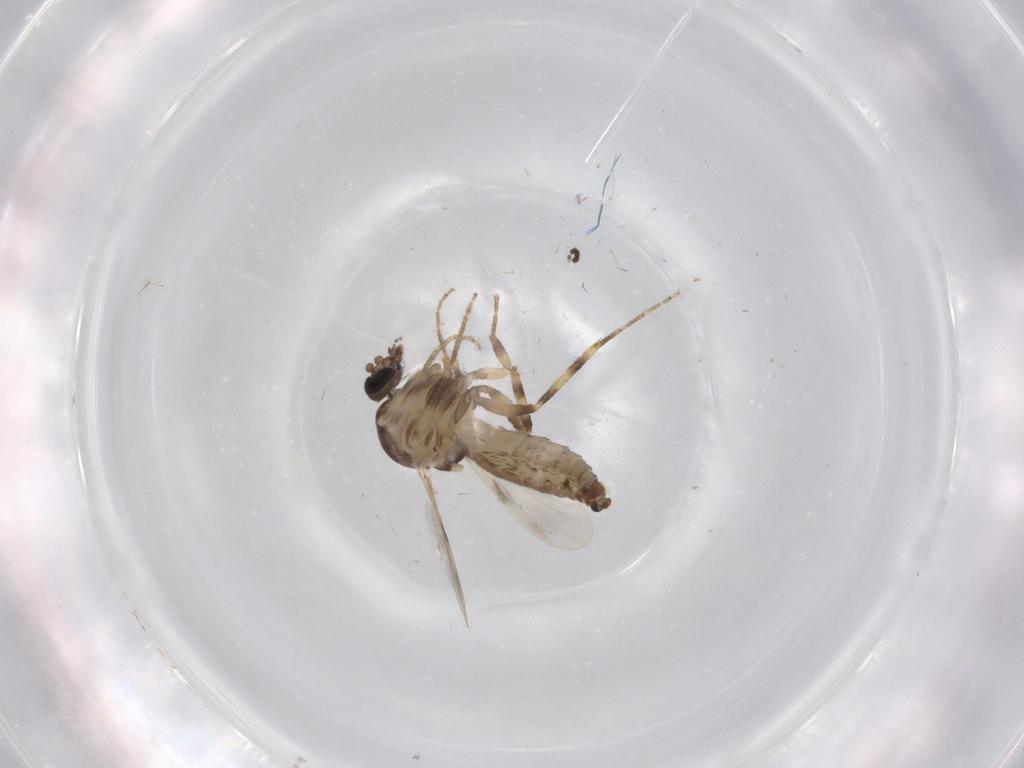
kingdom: Animalia
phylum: Arthropoda
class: Insecta
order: Diptera
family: Ceratopogonidae
